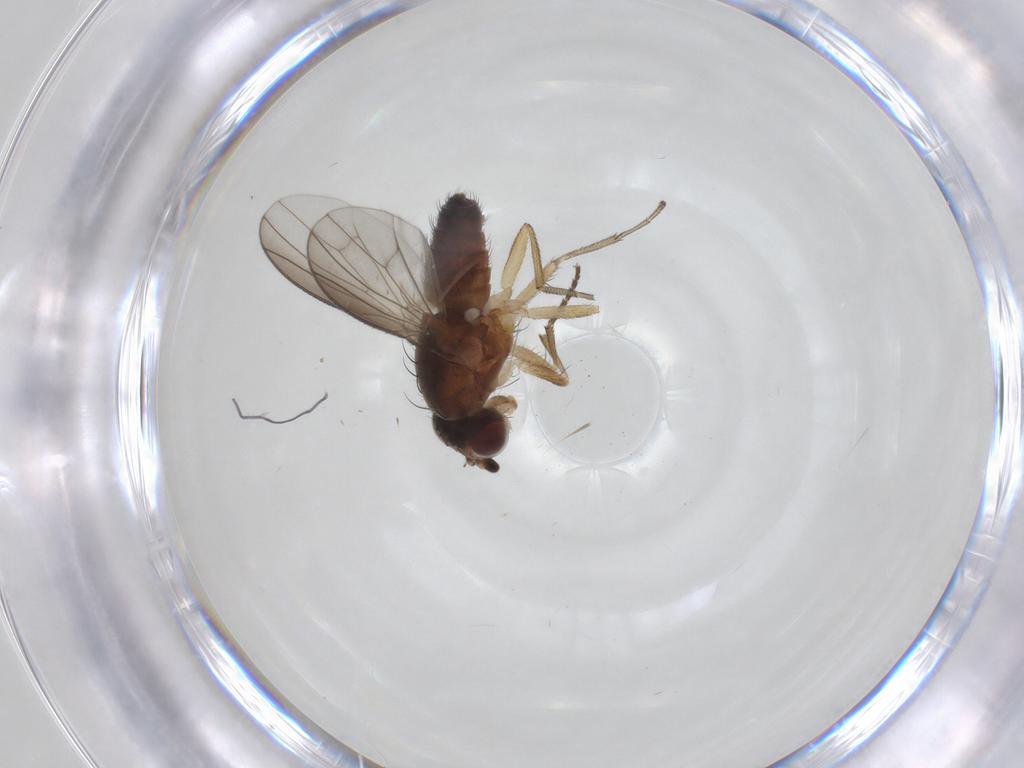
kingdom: Animalia
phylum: Arthropoda
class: Insecta
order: Diptera
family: Heleomyzidae
